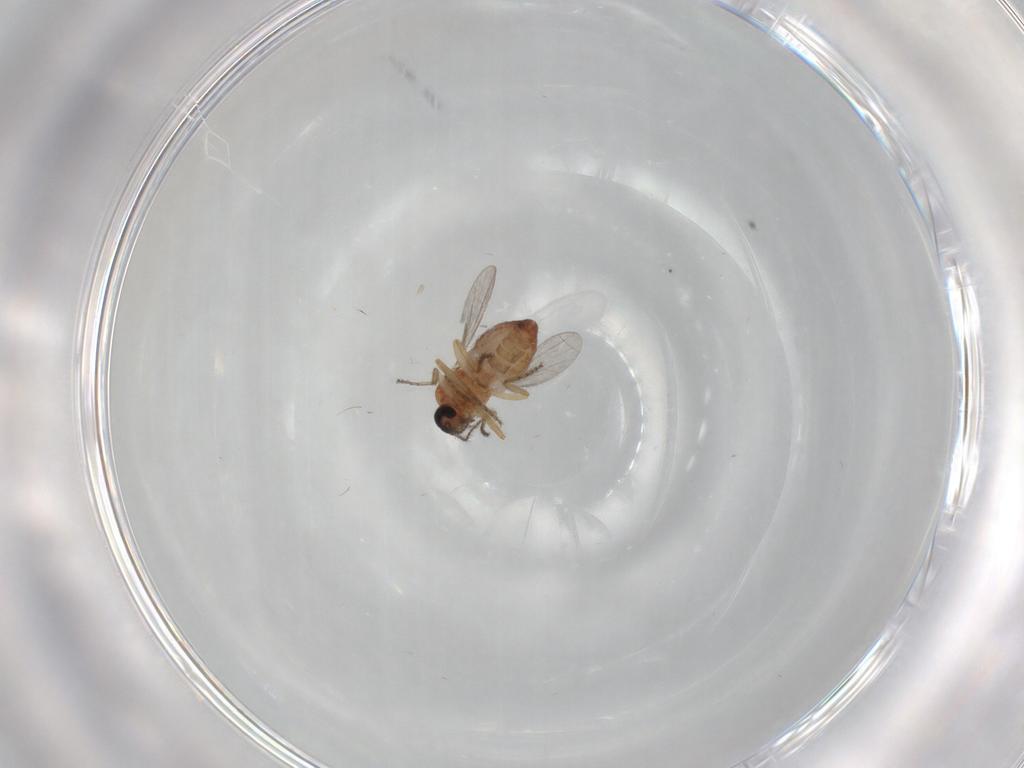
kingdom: Animalia
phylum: Arthropoda
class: Insecta
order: Diptera
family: Ceratopogonidae
